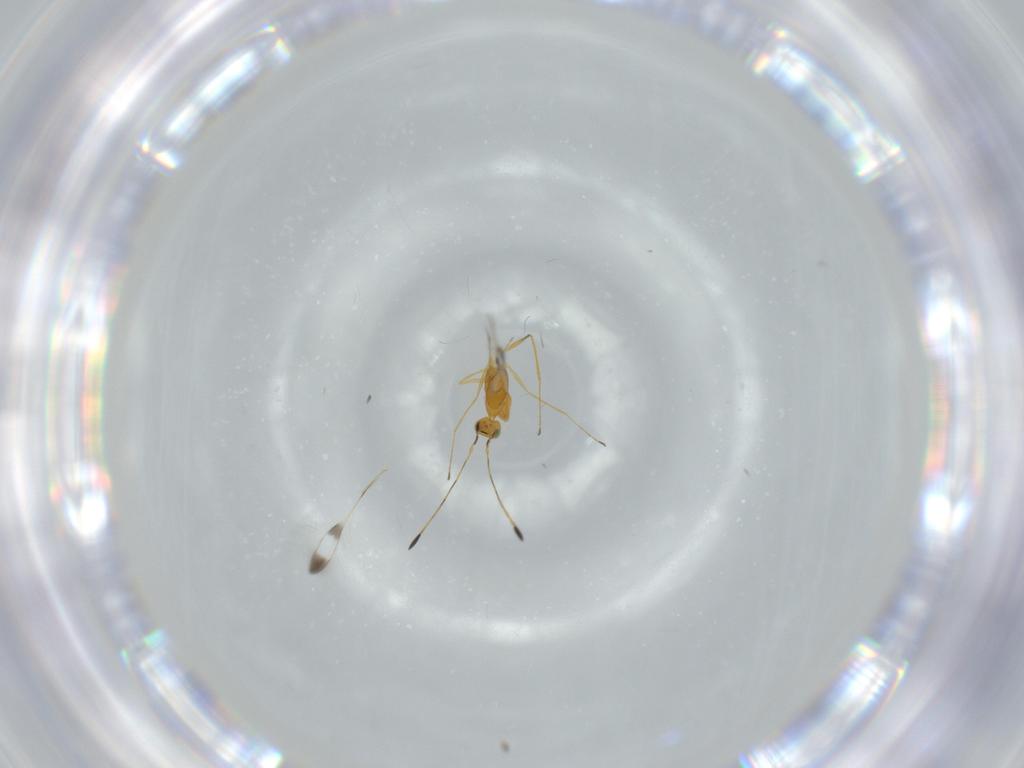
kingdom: Animalia
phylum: Arthropoda
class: Insecta
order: Hymenoptera
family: Mymaridae
